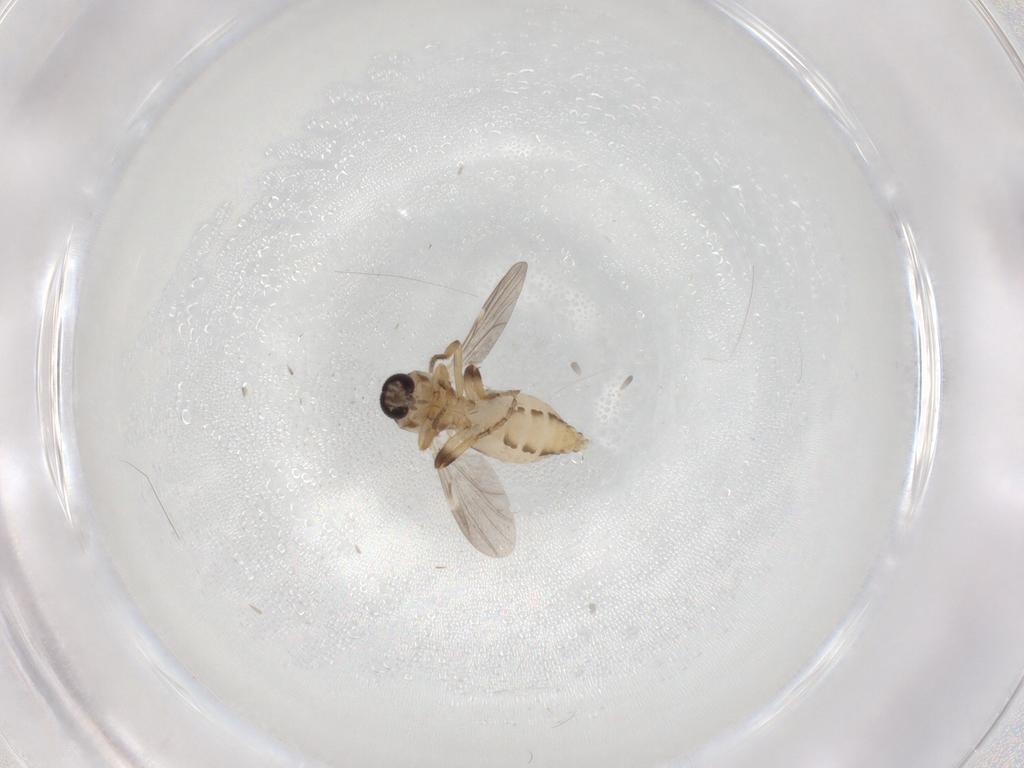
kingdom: Animalia
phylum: Arthropoda
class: Insecta
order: Diptera
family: Ceratopogonidae
